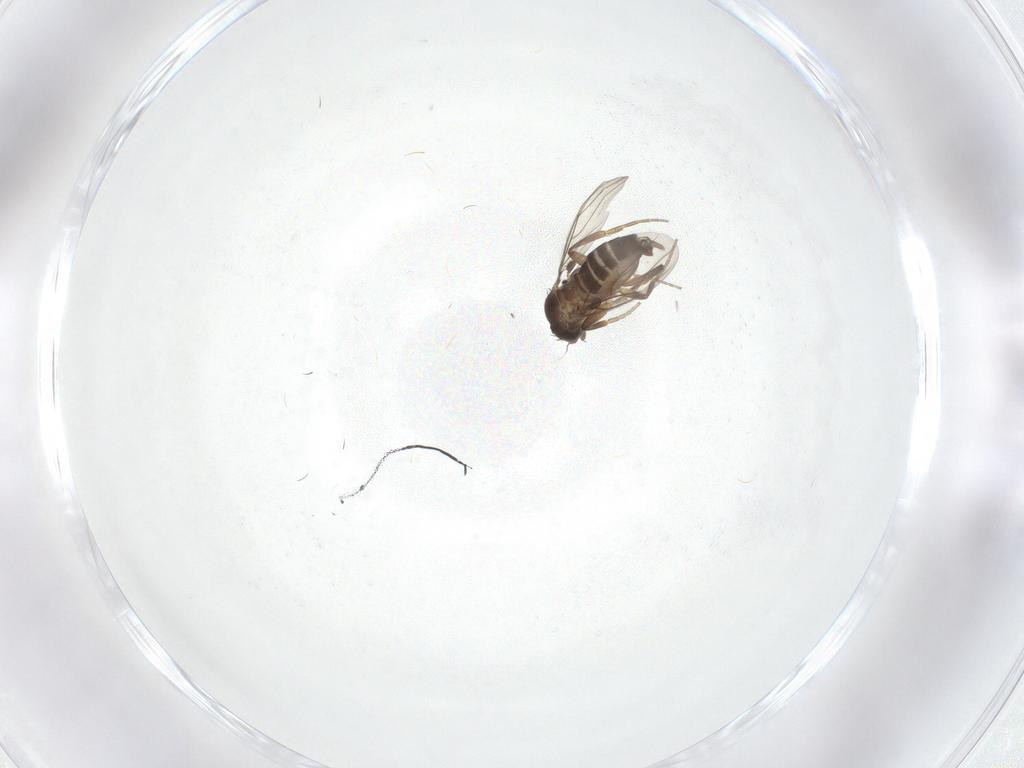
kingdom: Animalia
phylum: Arthropoda
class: Insecta
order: Diptera
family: Phoridae
